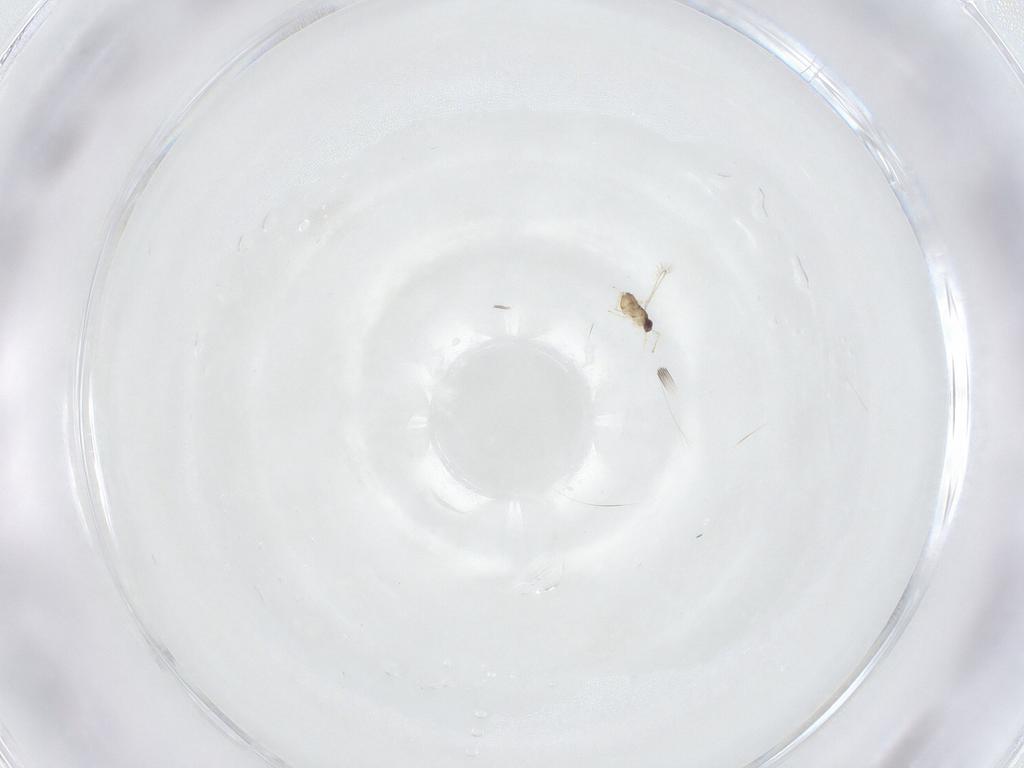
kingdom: Animalia
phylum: Arthropoda
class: Insecta
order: Hymenoptera
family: Mymaridae
